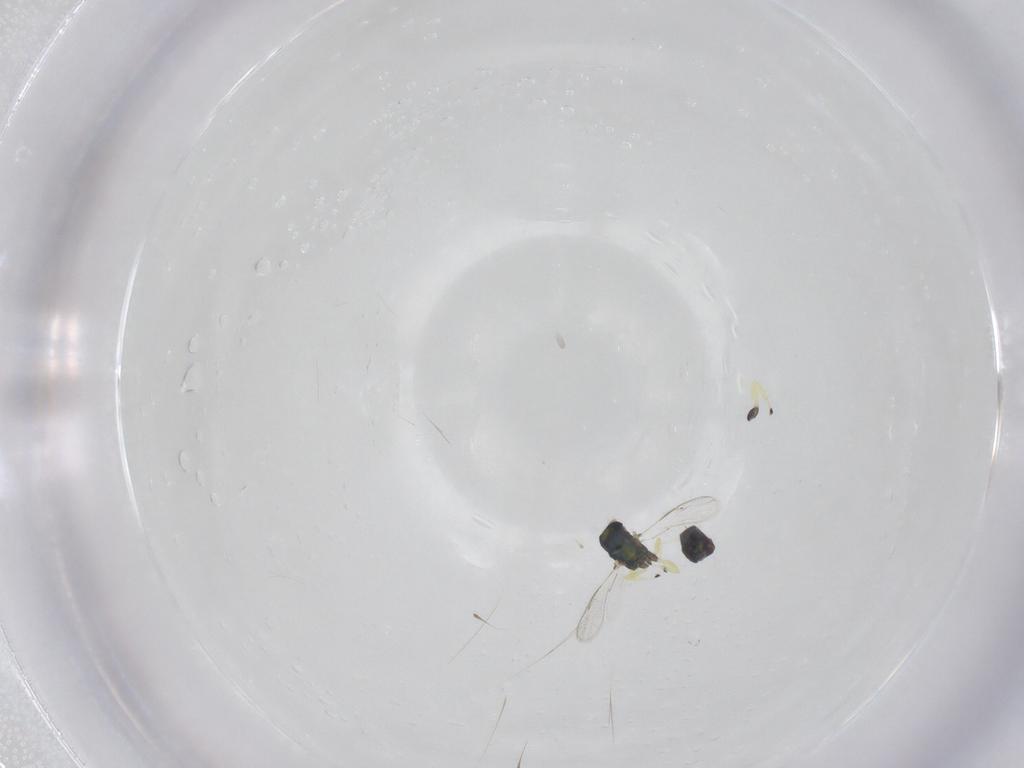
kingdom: Animalia
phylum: Arthropoda
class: Insecta
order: Hymenoptera
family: Eulophidae
